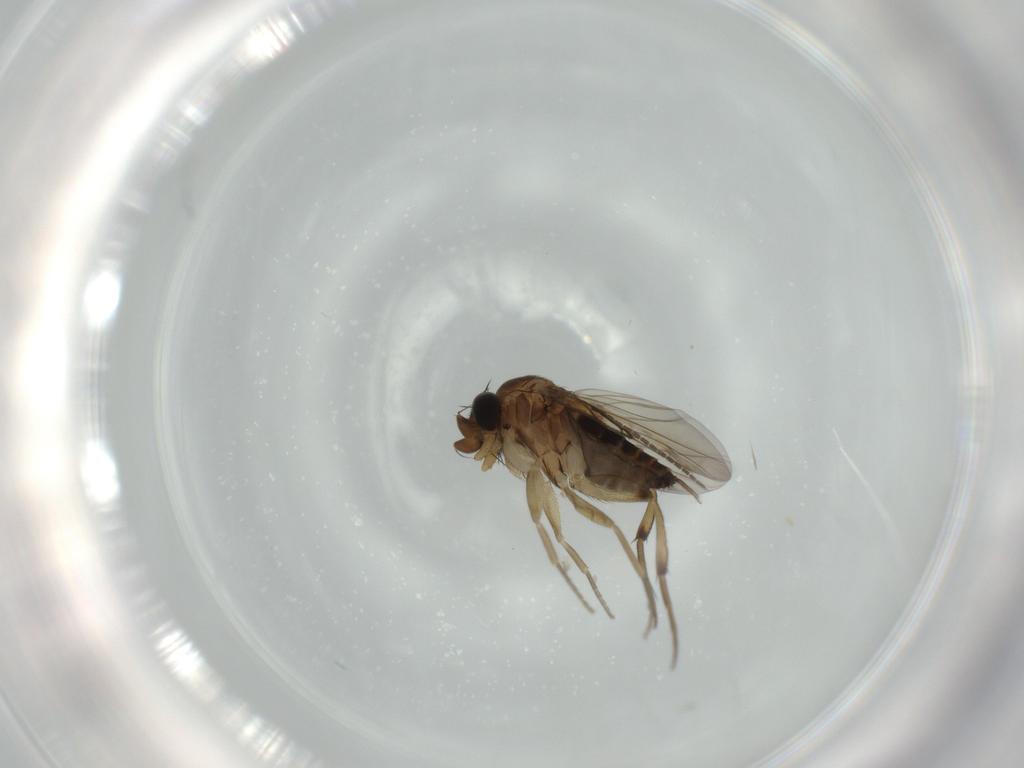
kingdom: Animalia
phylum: Arthropoda
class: Insecta
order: Diptera
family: Phoridae
